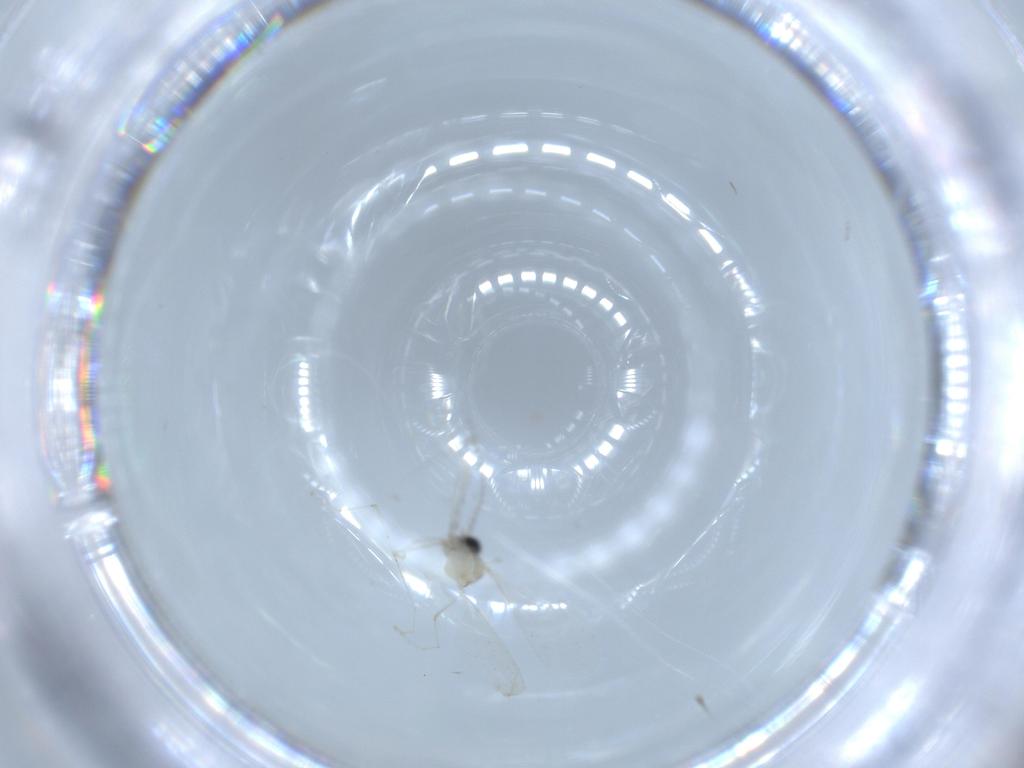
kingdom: Animalia
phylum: Arthropoda
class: Insecta
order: Diptera
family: Cecidomyiidae
